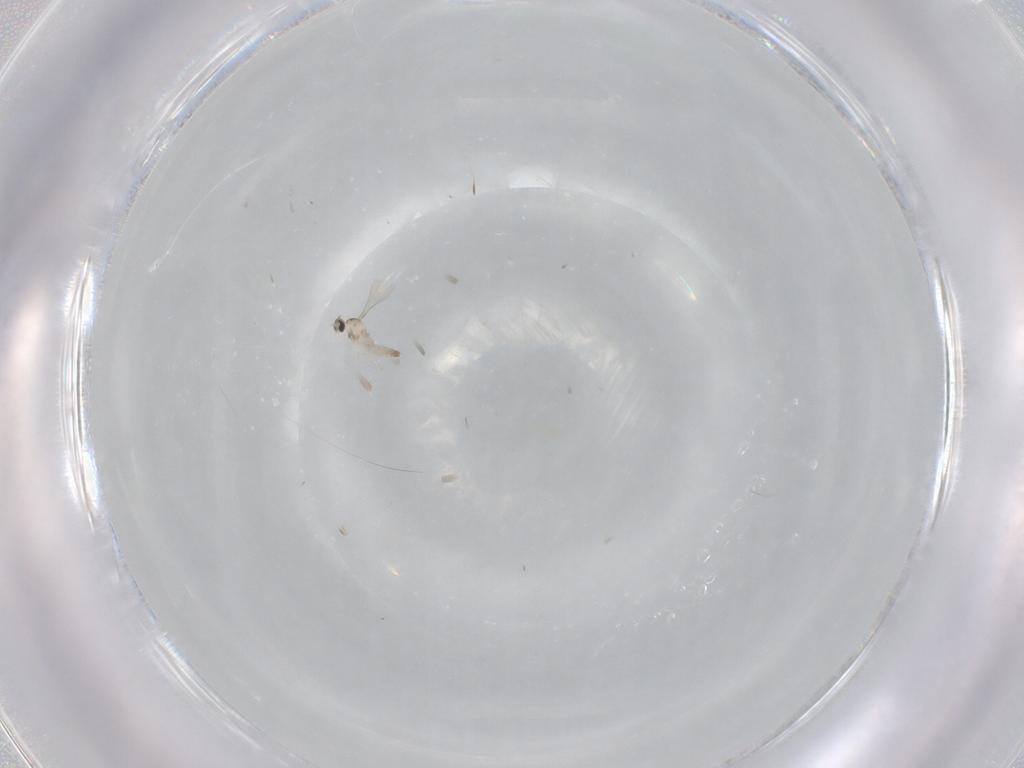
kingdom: Animalia
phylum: Arthropoda
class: Insecta
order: Diptera
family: Cecidomyiidae
